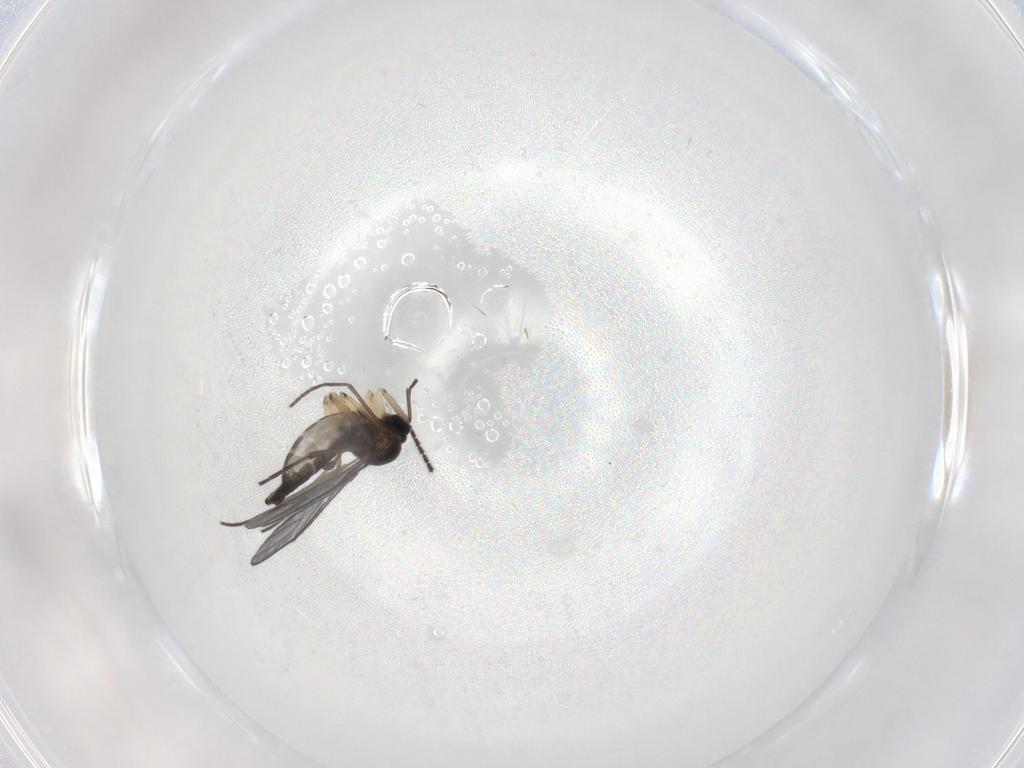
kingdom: Animalia
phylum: Arthropoda
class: Insecta
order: Diptera
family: Sciaridae
